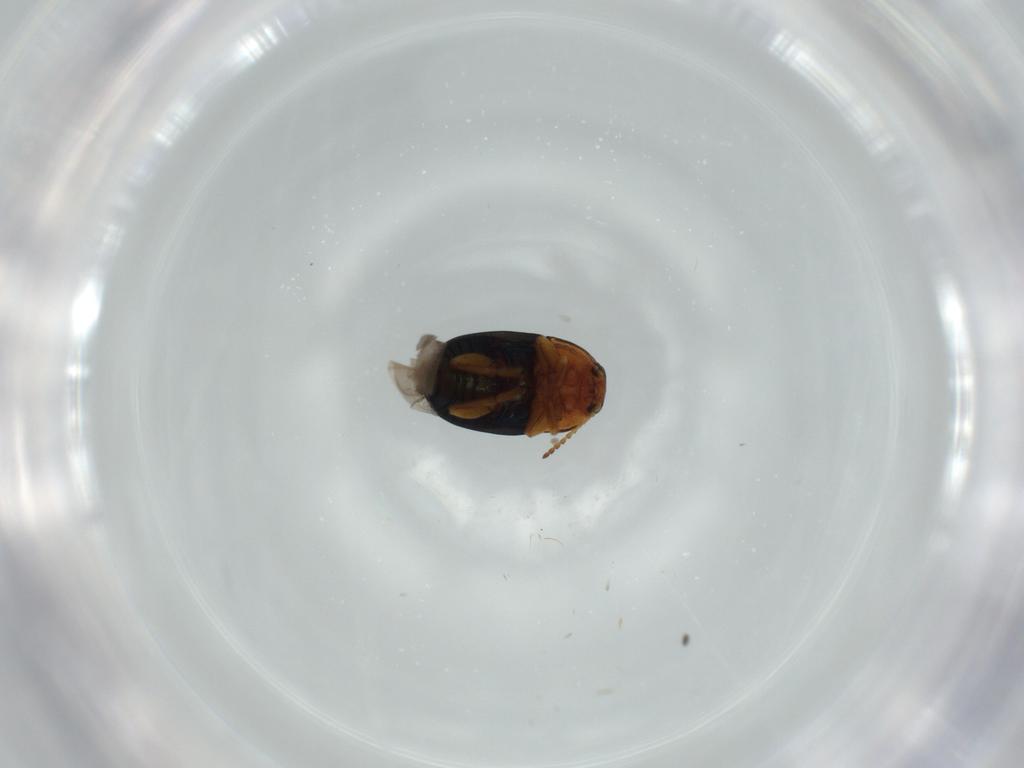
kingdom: Animalia
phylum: Arthropoda
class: Insecta
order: Coleoptera
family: Chrysomelidae
